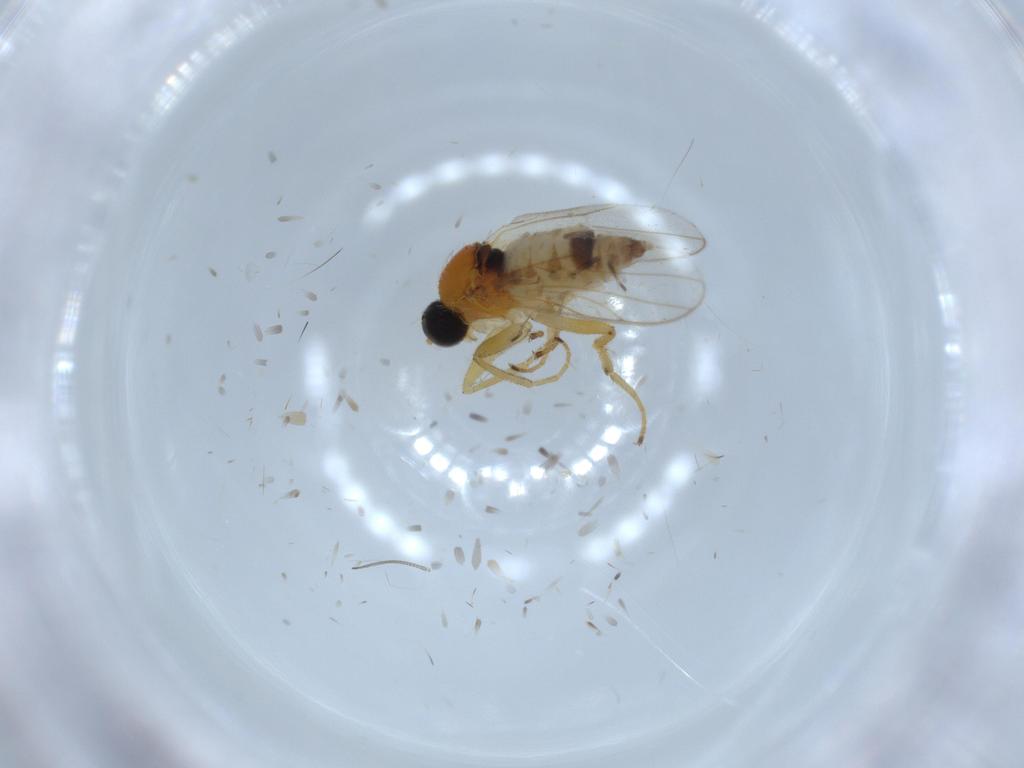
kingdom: Animalia
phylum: Arthropoda
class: Insecta
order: Diptera
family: Hybotidae
